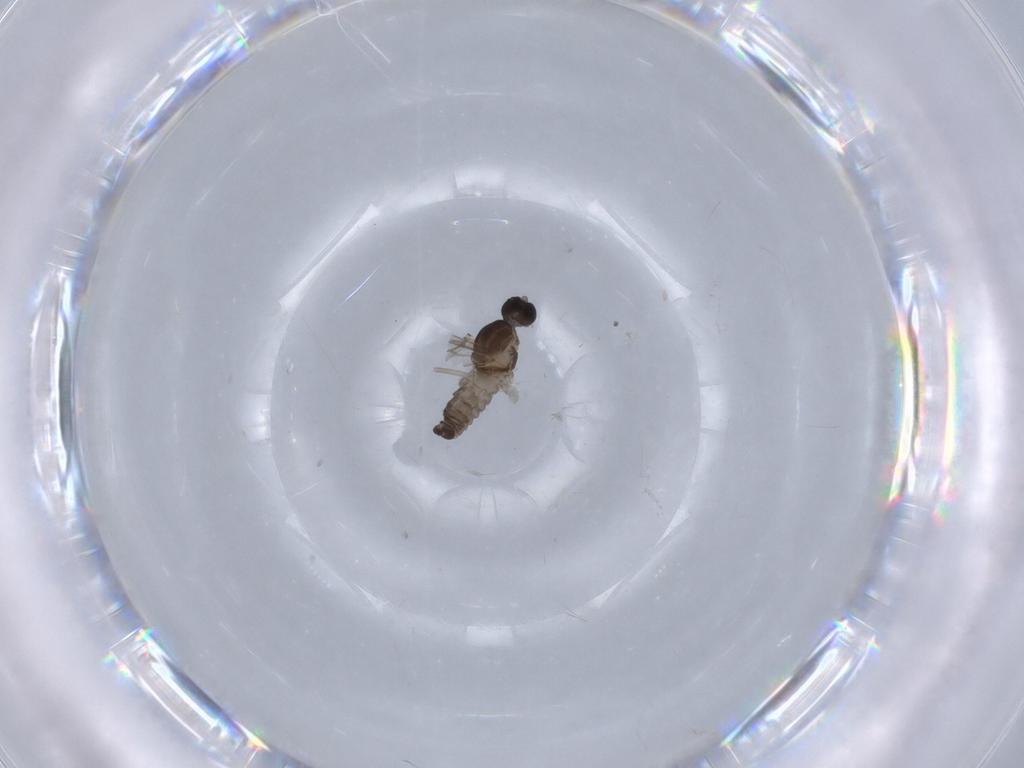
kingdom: Animalia
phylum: Arthropoda
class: Insecta
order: Diptera
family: Cecidomyiidae
